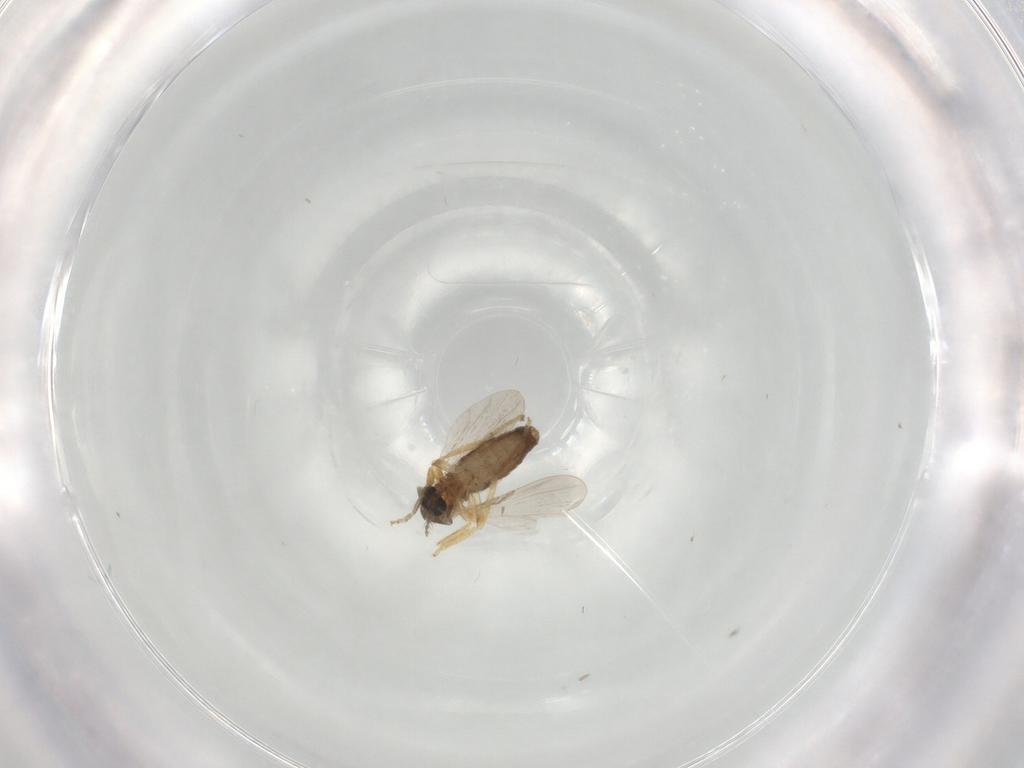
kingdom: Animalia
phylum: Arthropoda
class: Insecta
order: Diptera
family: Ceratopogonidae
